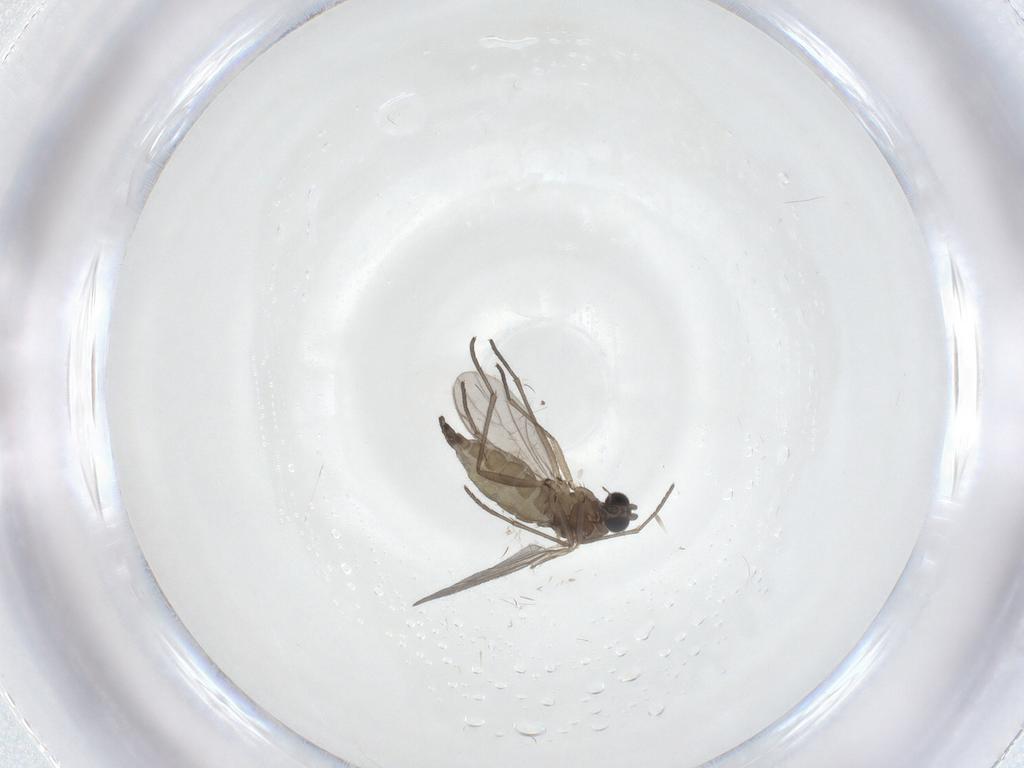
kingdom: Animalia
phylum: Arthropoda
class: Insecta
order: Diptera
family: Sciaridae
